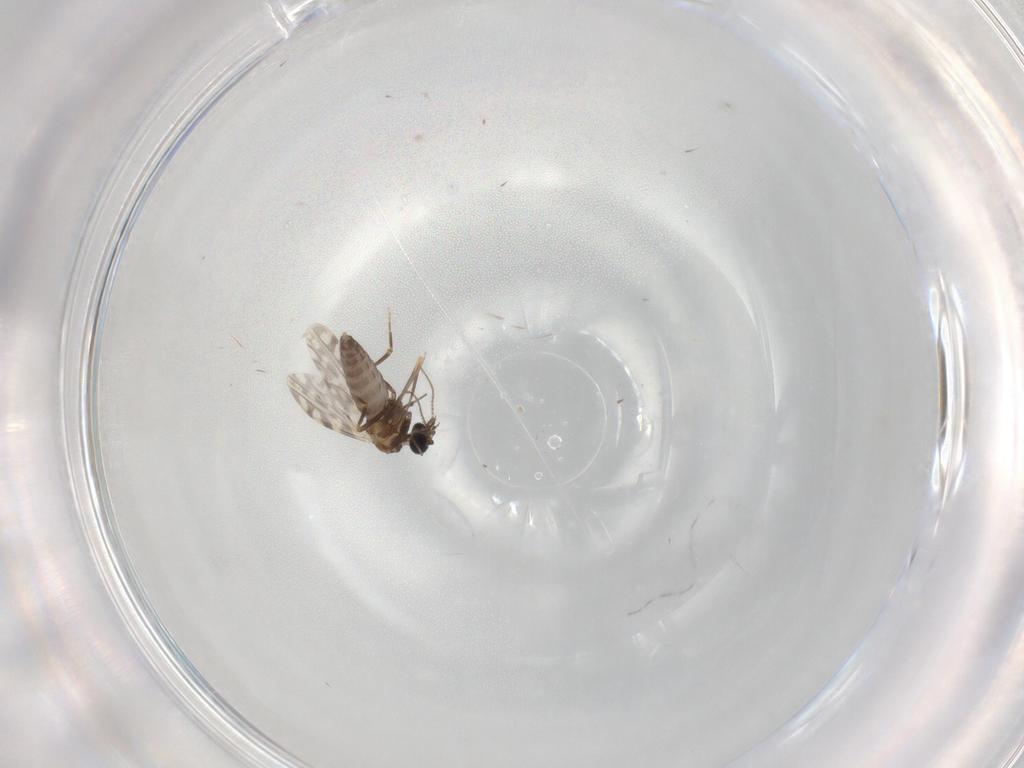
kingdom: Animalia
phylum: Arthropoda
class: Insecta
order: Diptera
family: Ceratopogonidae
